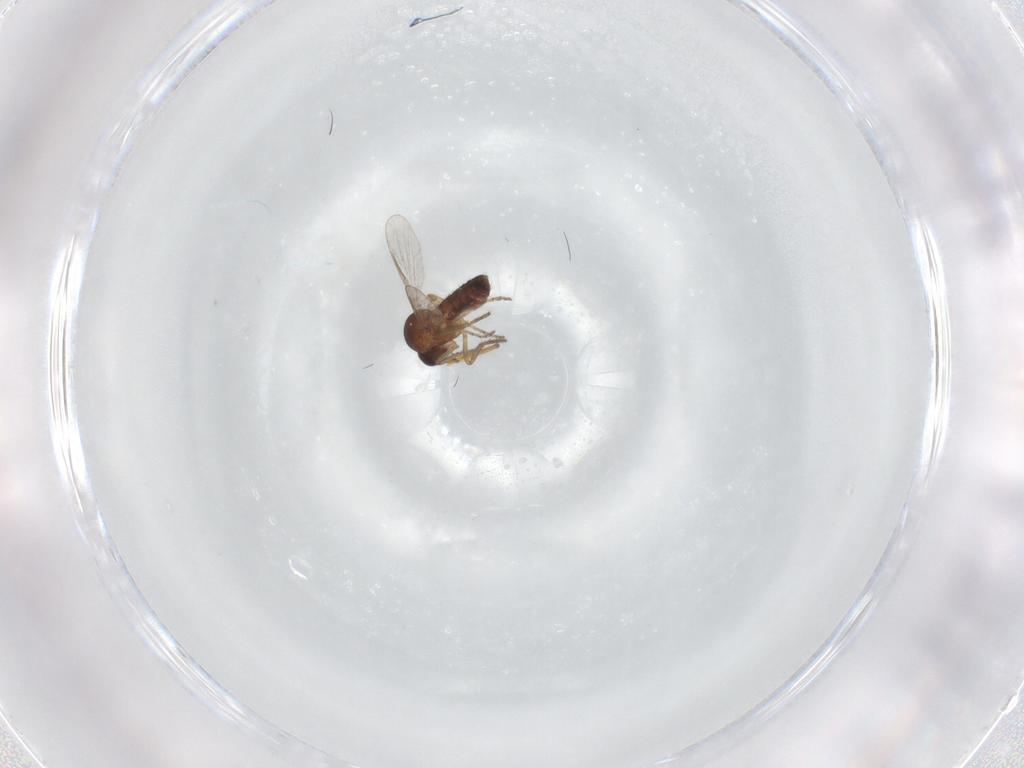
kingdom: Animalia
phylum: Arthropoda
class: Insecta
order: Diptera
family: Ceratopogonidae
